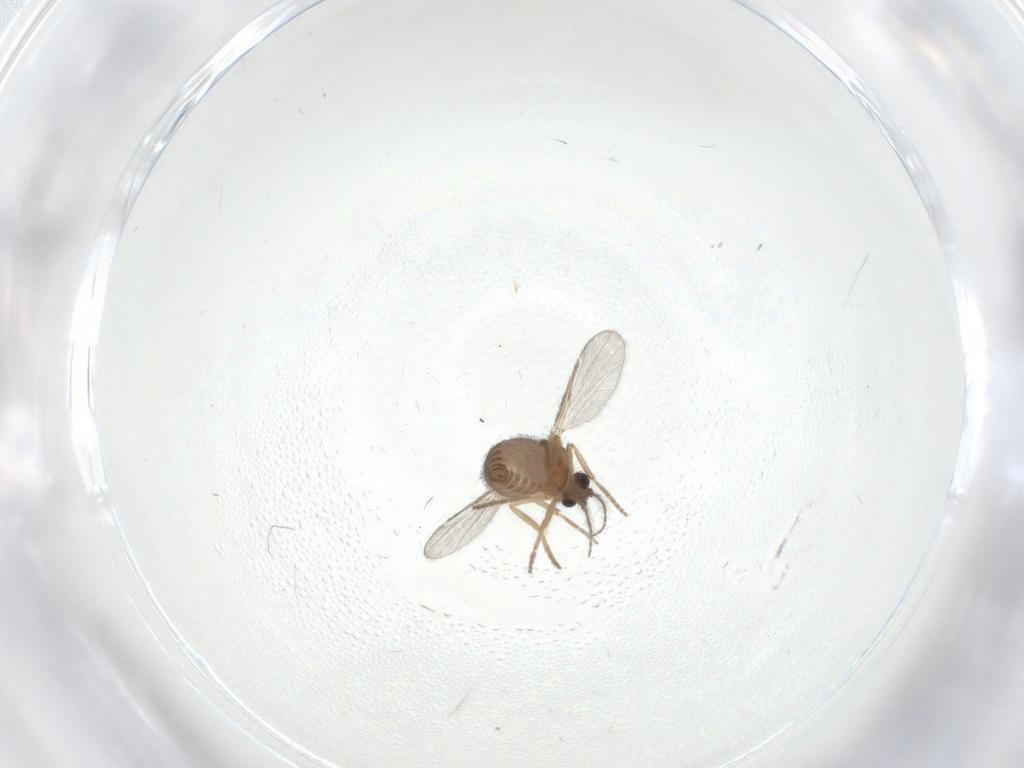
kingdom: Animalia
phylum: Arthropoda
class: Insecta
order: Diptera
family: Ceratopogonidae
